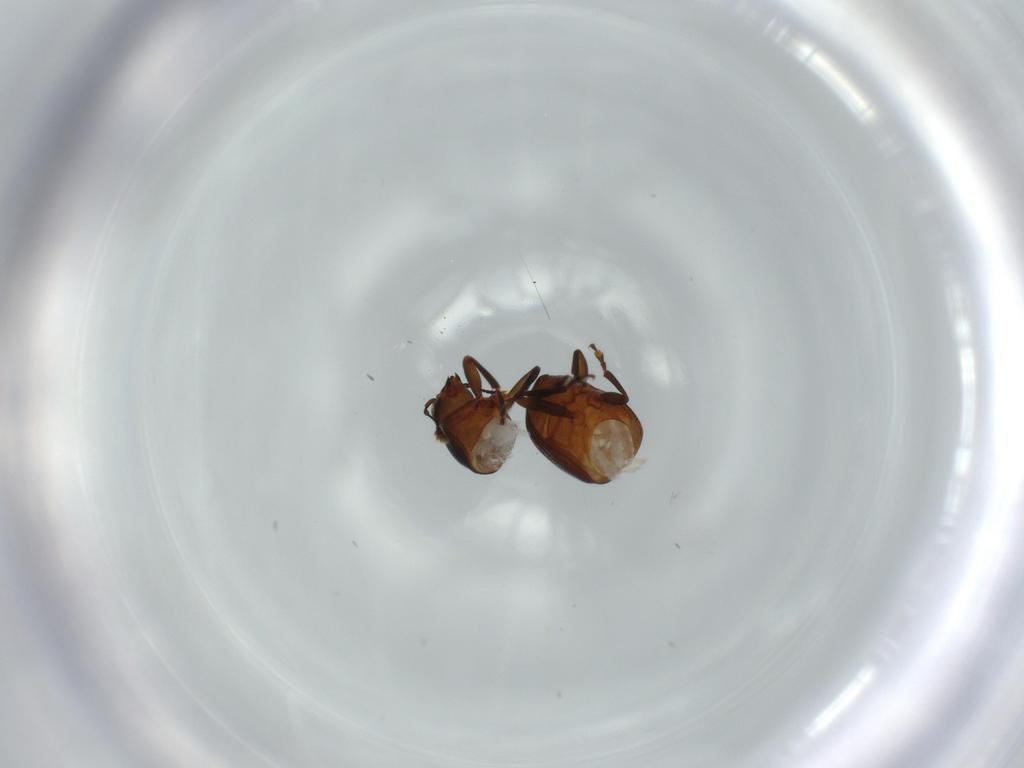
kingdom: Animalia
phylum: Arthropoda
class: Insecta
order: Coleoptera
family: Anthribidae
